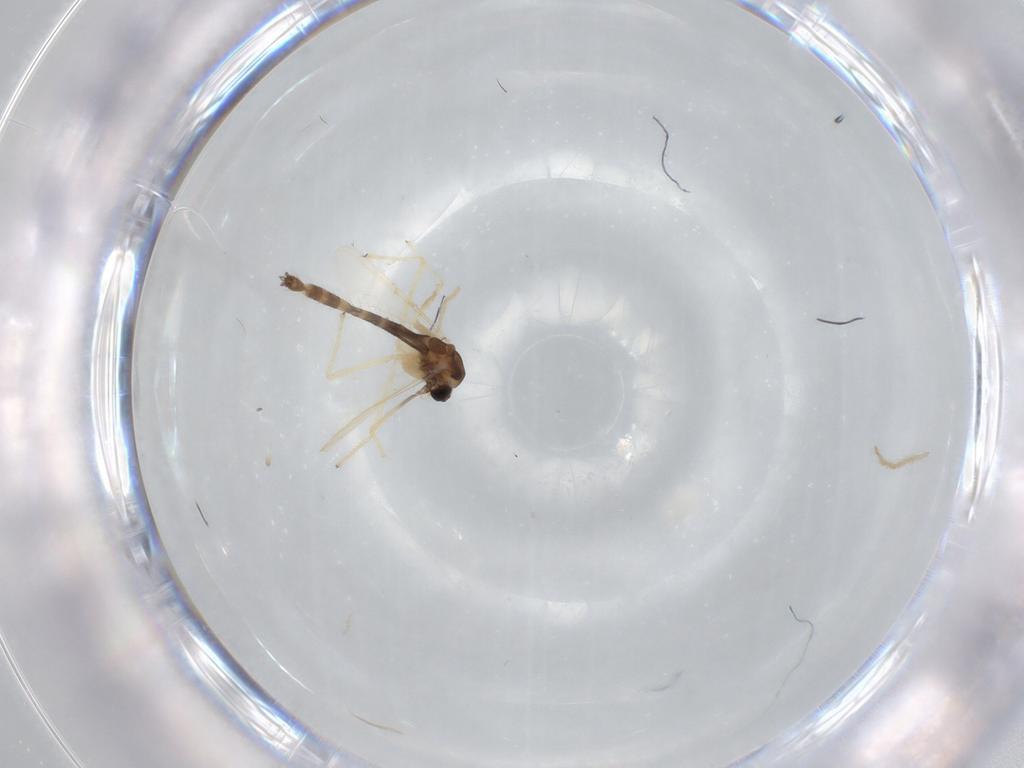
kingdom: Animalia
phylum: Arthropoda
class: Insecta
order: Diptera
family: Chironomidae
